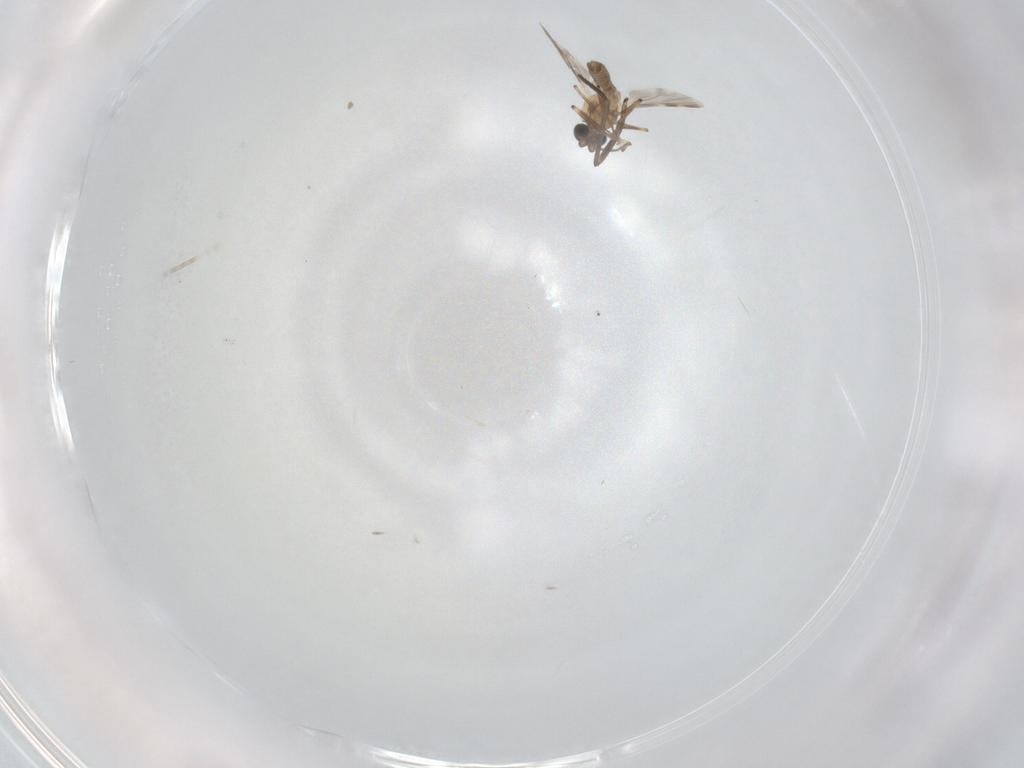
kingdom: Animalia
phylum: Arthropoda
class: Insecta
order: Diptera
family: Ceratopogonidae
